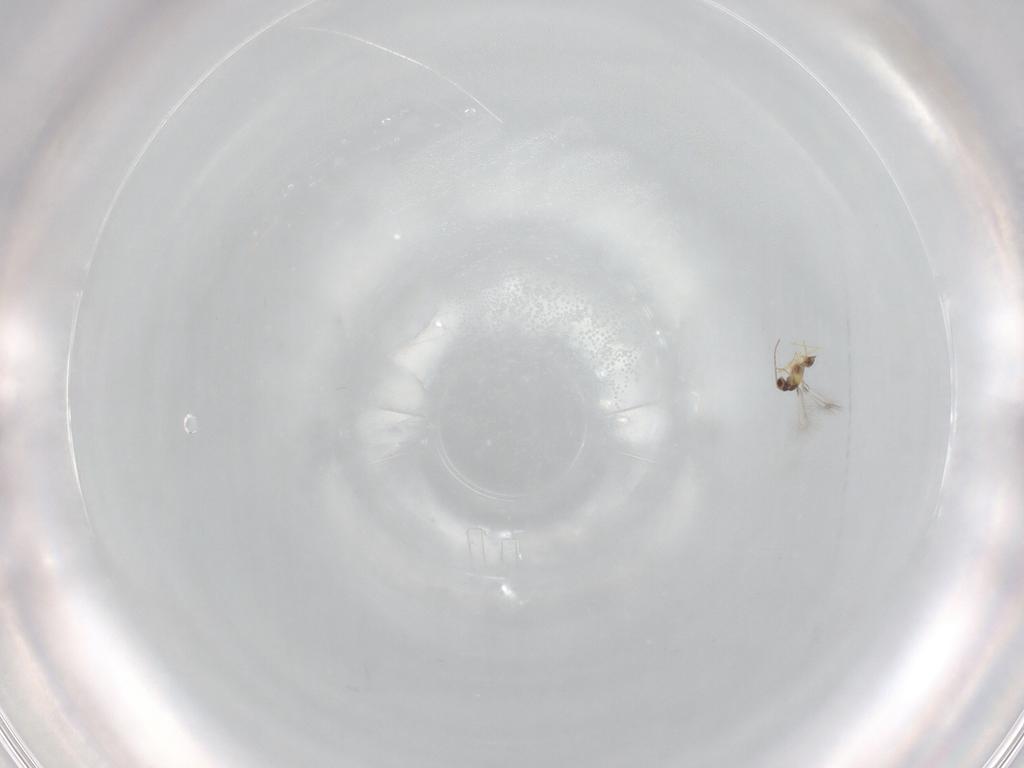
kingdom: Animalia
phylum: Arthropoda
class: Insecta
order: Hymenoptera
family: Mymaridae
